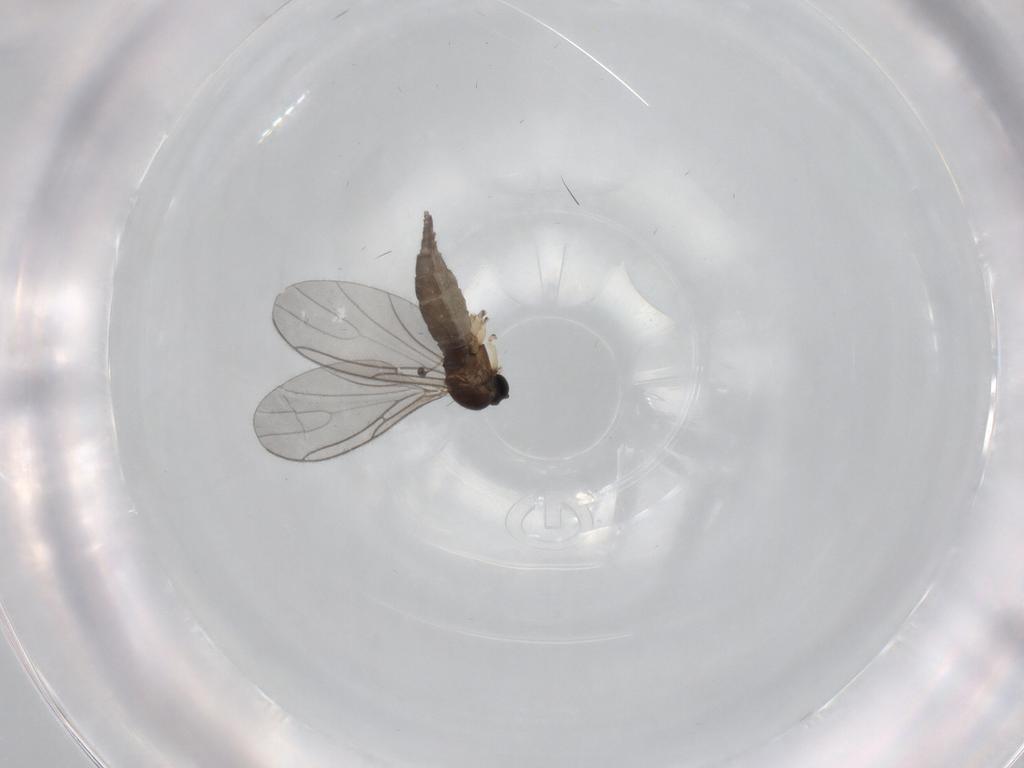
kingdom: Animalia
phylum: Arthropoda
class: Insecta
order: Diptera
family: Sciaridae
